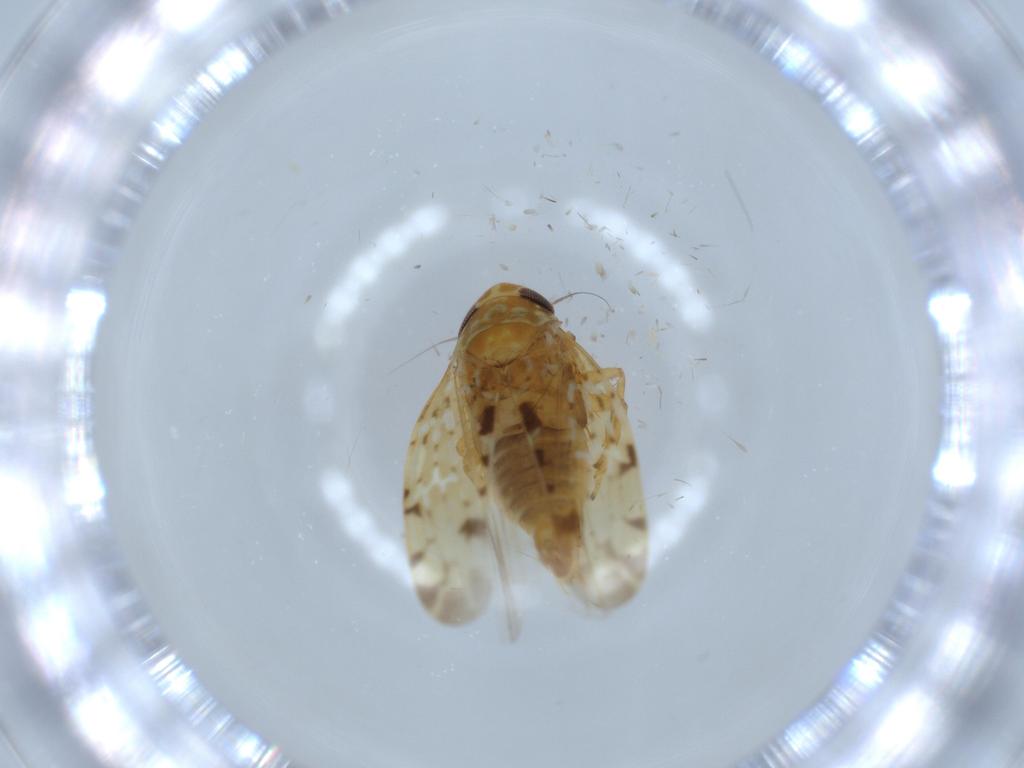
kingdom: Animalia
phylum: Arthropoda
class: Insecta
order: Hemiptera
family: Cicadellidae
